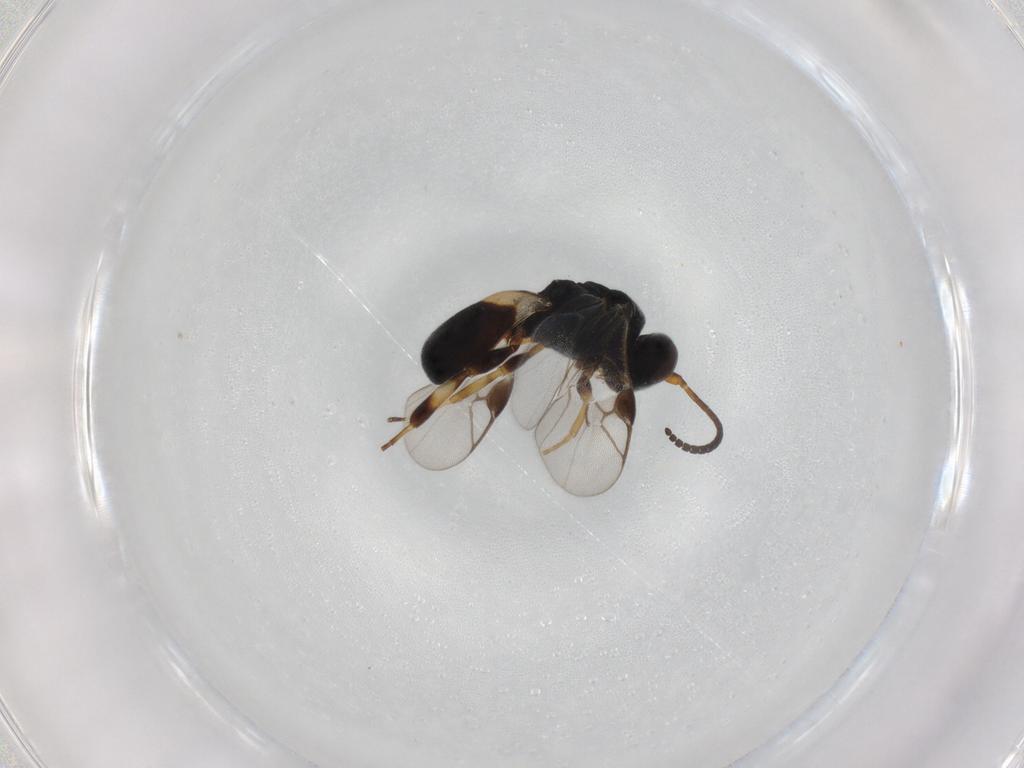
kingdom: Animalia
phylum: Arthropoda
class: Insecta
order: Hymenoptera
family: Braconidae
